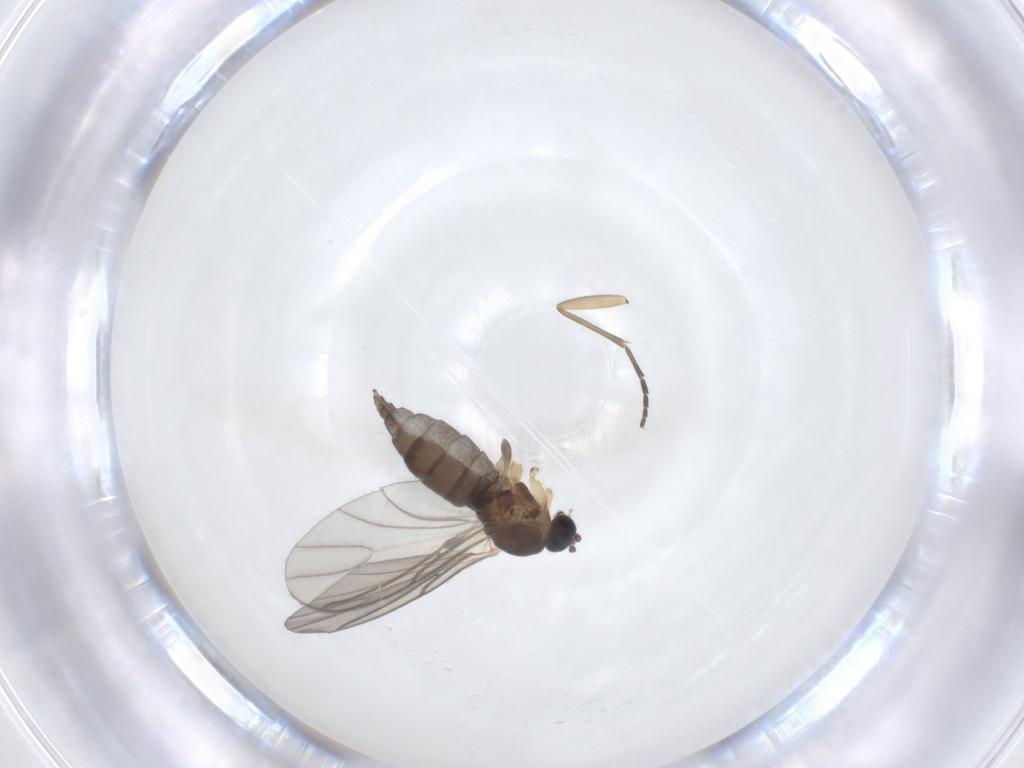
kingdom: Animalia
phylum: Arthropoda
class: Insecta
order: Diptera
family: Sciaridae
